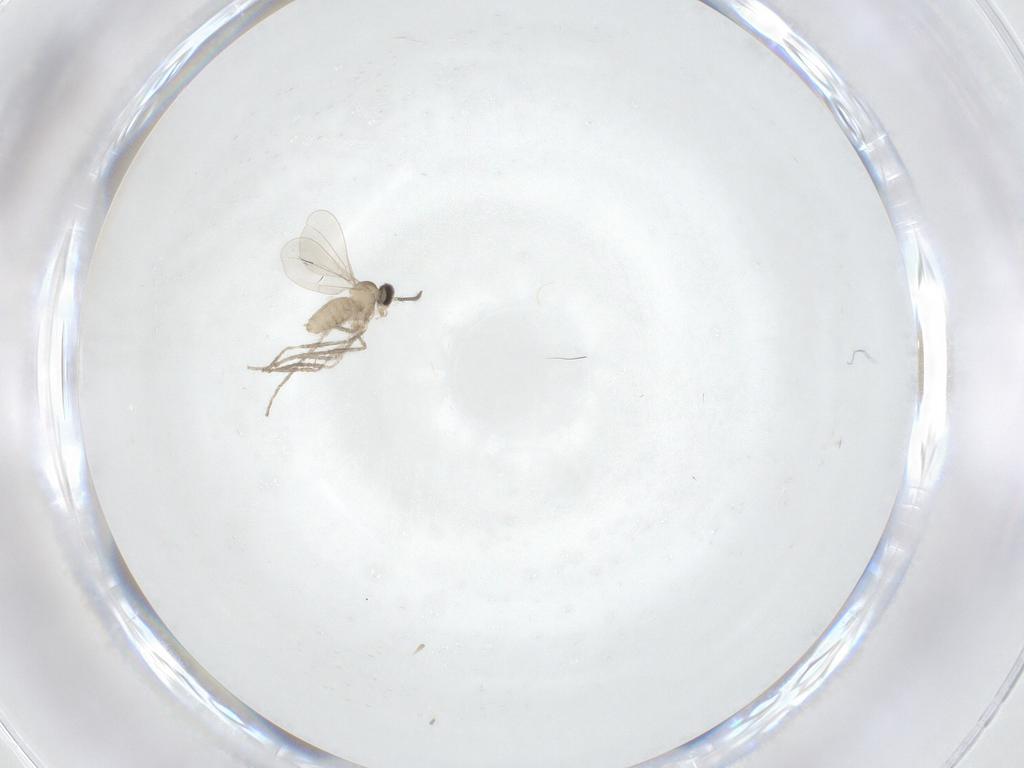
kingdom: Animalia
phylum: Arthropoda
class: Insecta
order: Diptera
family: Cecidomyiidae
